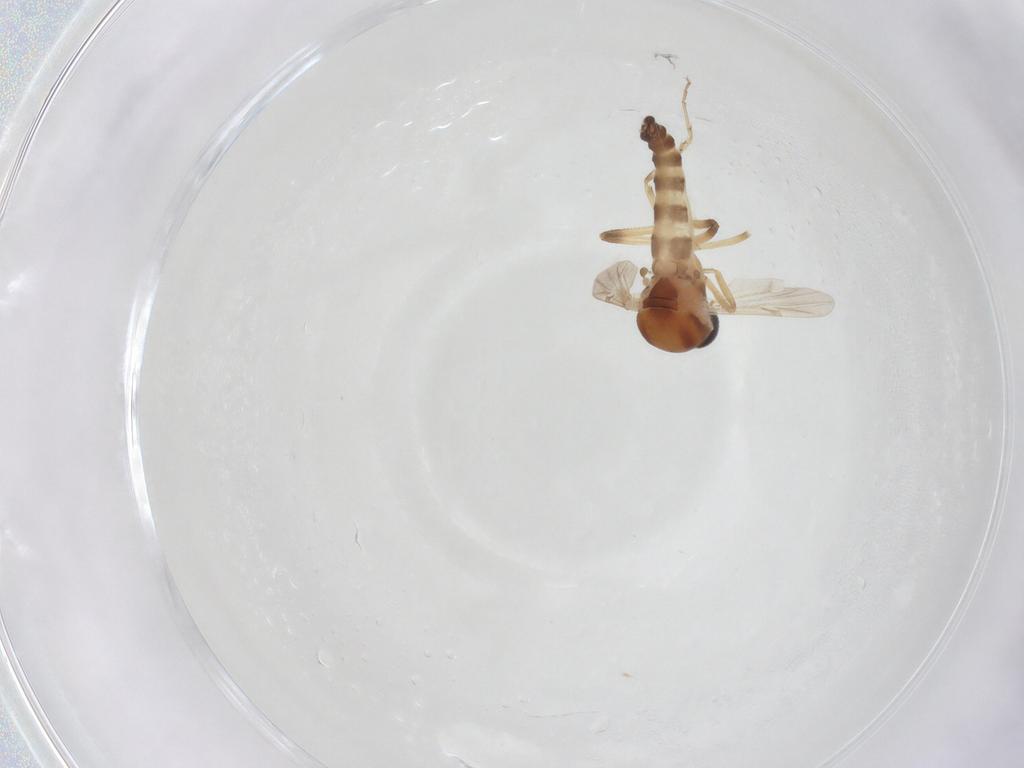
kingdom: Animalia
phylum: Arthropoda
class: Insecta
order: Diptera
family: Ceratopogonidae
